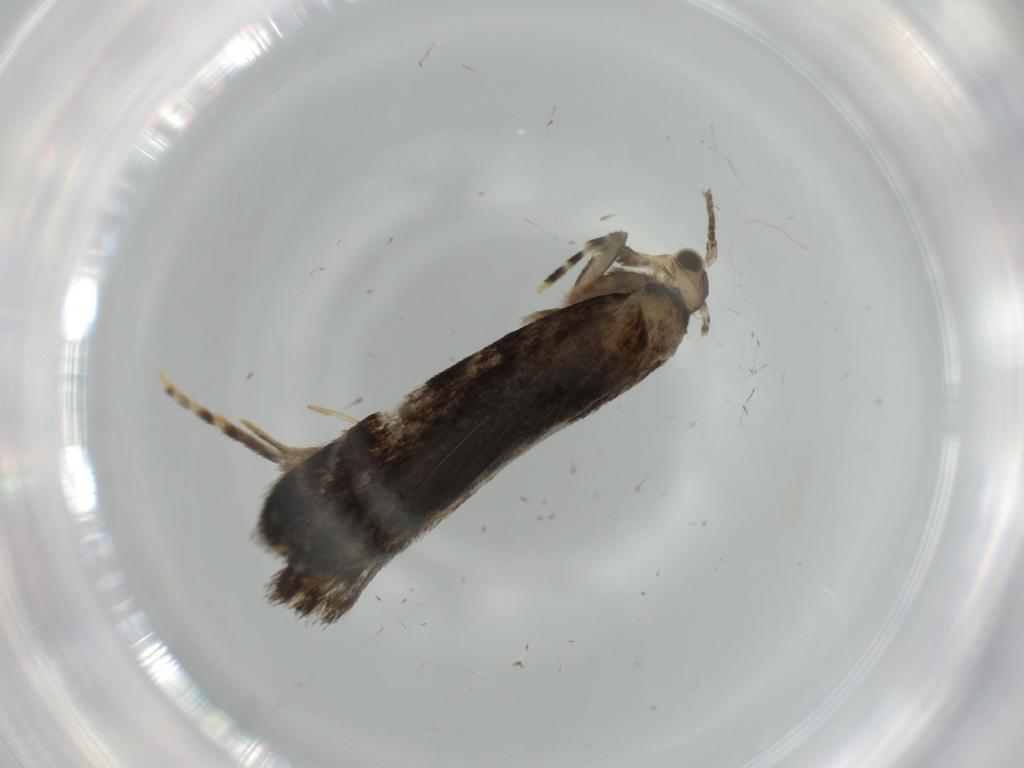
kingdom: Animalia
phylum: Arthropoda
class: Insecta
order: Lepidoptera
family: Tineidae
